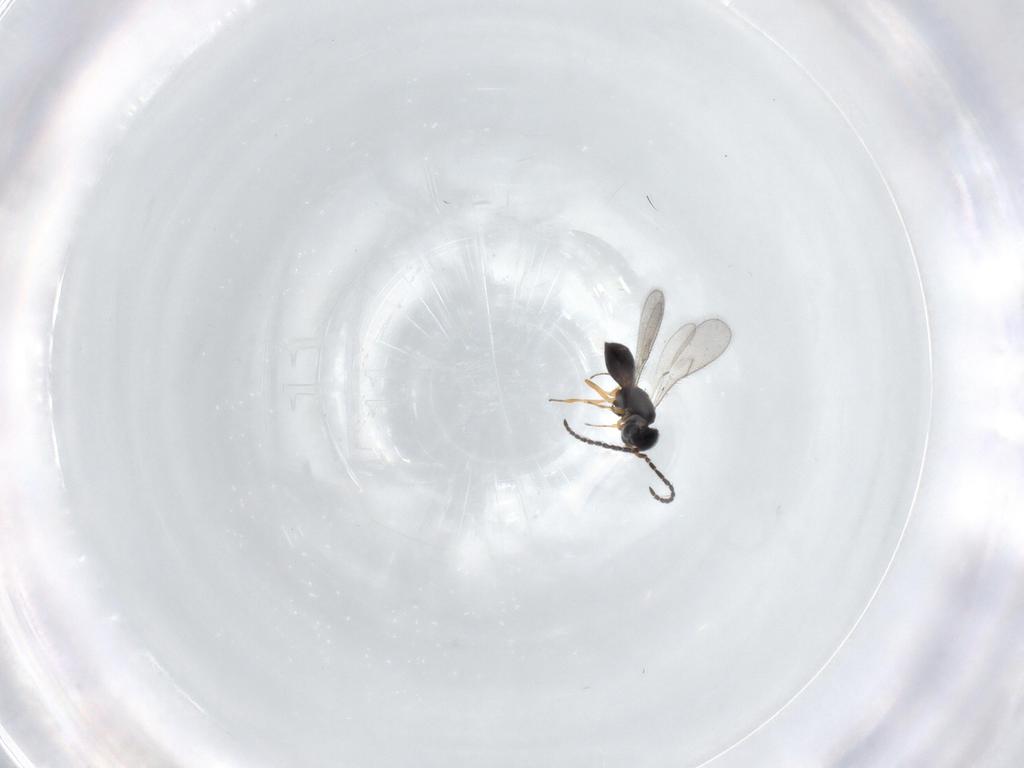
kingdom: Animalia
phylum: Arthropoda
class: Insecta
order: Hymenoptera
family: Scelionidae
